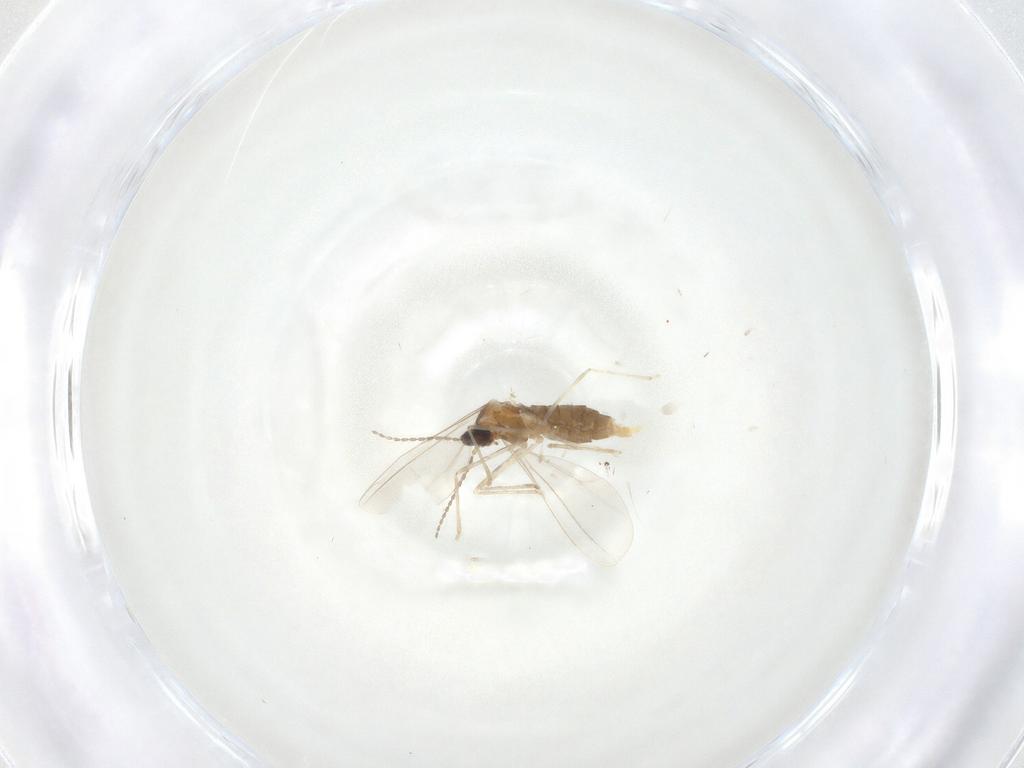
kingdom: Animalia
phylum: Arthropoda
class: Insecta
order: Diptera
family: Cecidomyiidae
